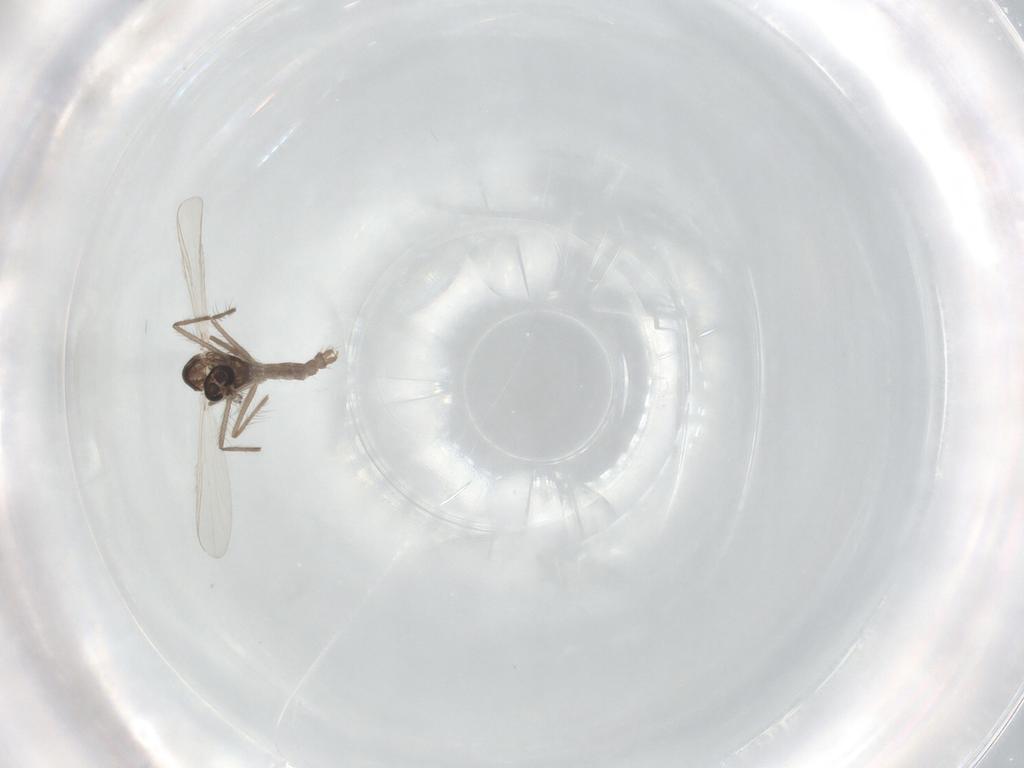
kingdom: Animalia
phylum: Arthropoda
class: Insecta
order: Diptera
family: Chironomidae
